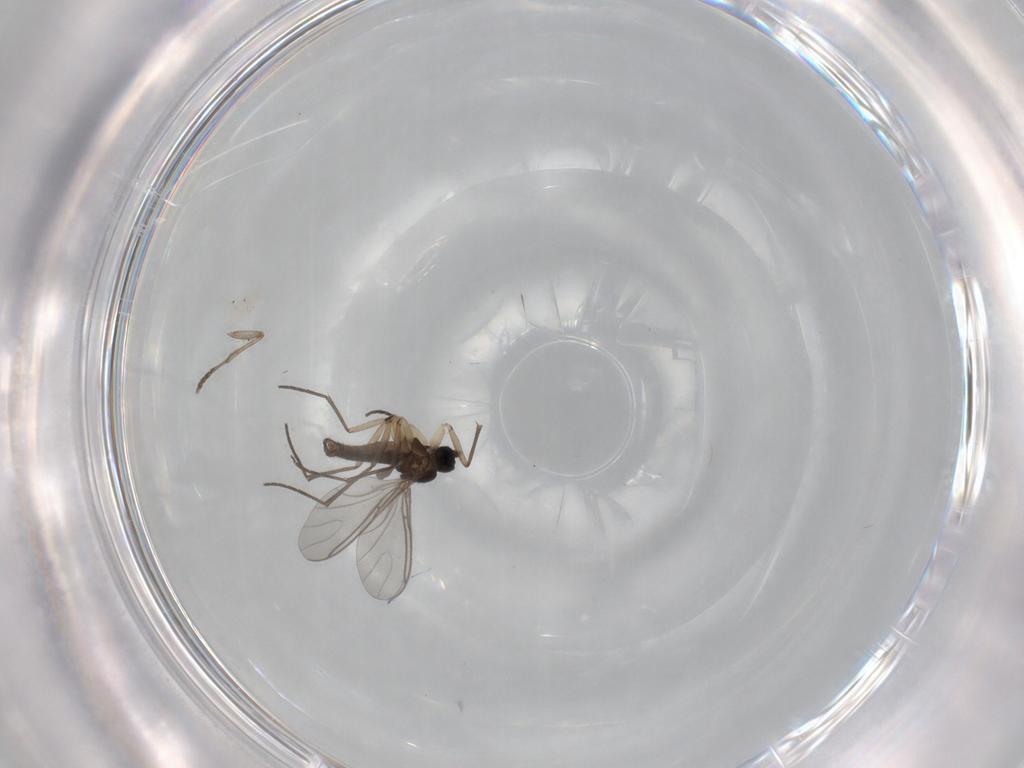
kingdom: Animalia
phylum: Arthropoda
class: Insecta
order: Diptera
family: Sciaridae
